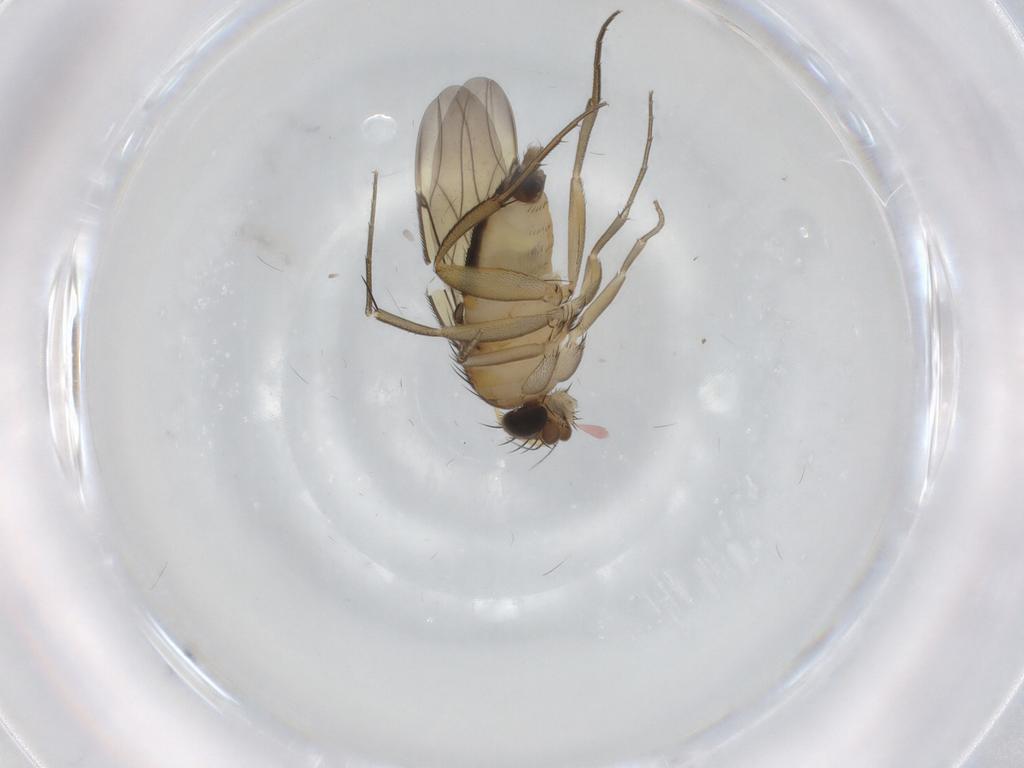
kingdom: Animalia
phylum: Arthropoda
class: Insecta
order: Diptera
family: Phoridae
